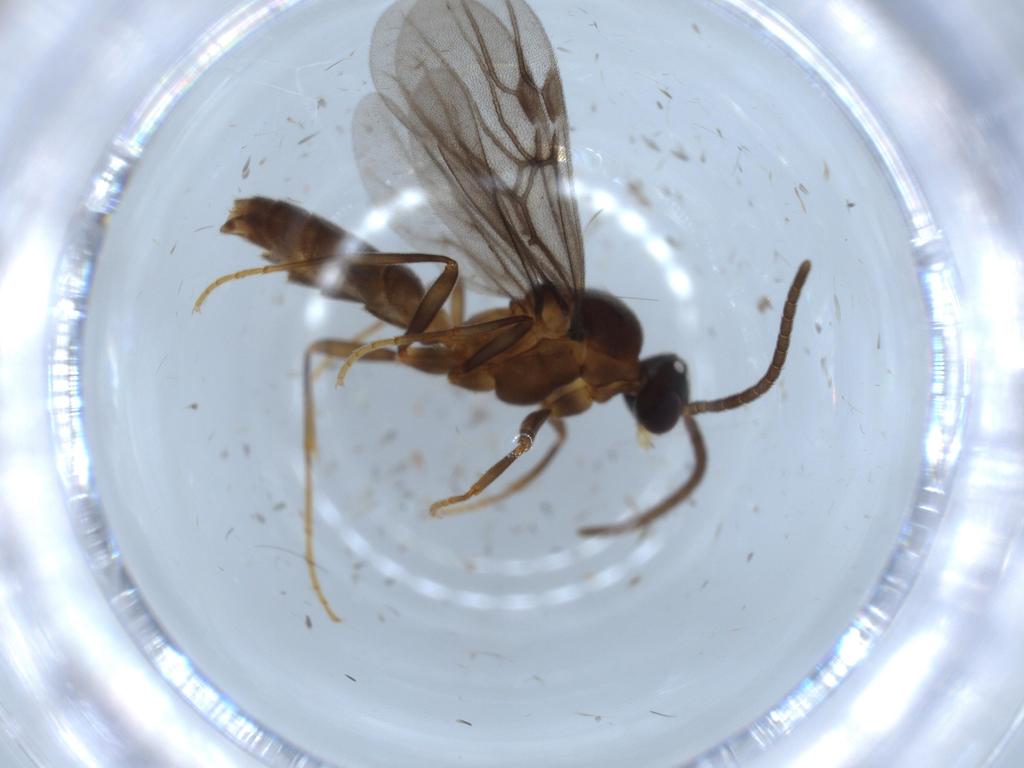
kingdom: Animalia
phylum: Arthropoda
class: Insecta
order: Hymenoptera
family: Formicidae
